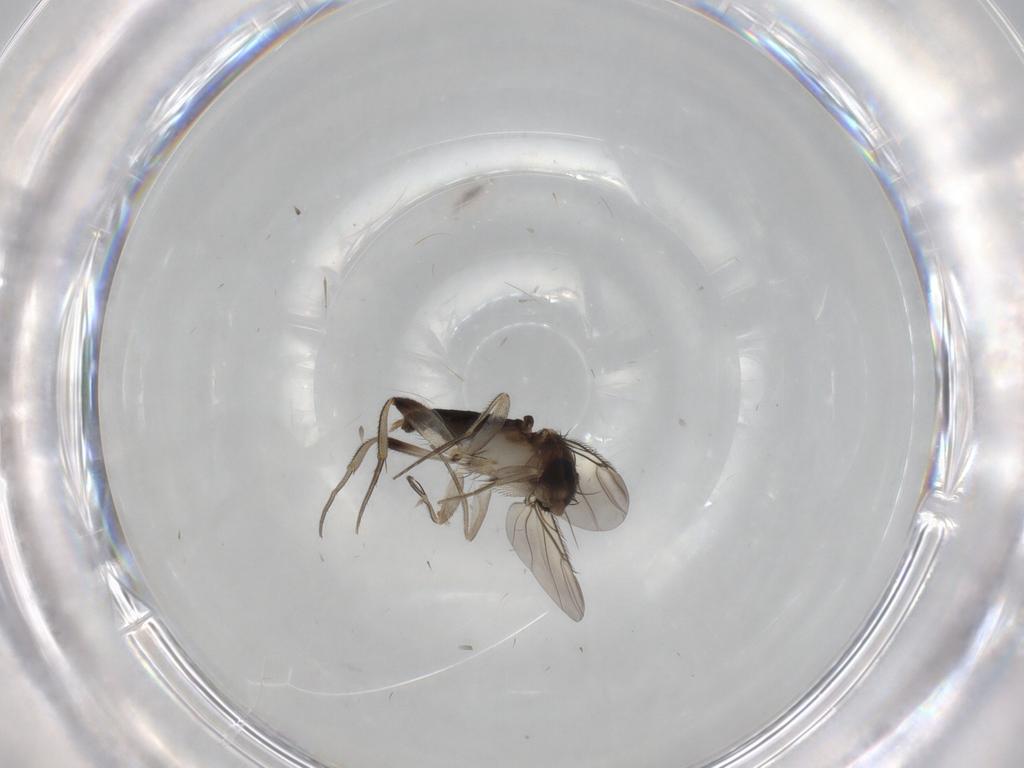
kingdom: Animalia
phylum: Arthropoda
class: Insecta
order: Diptera
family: Phoridae
